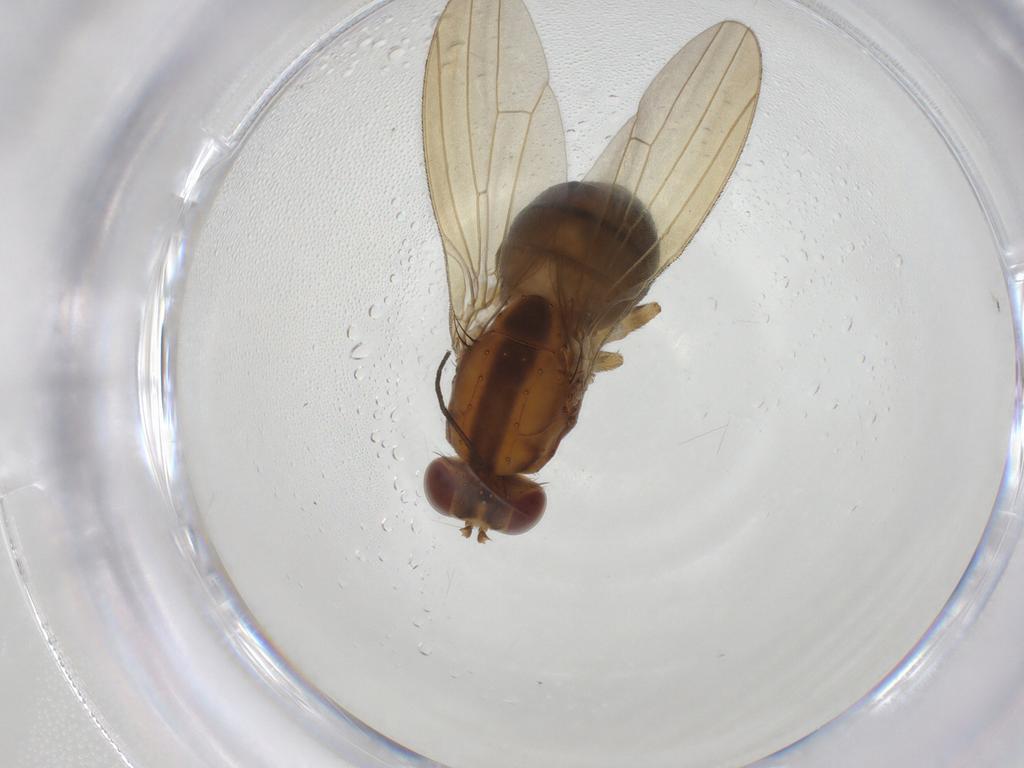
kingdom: Animalia
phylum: Arthropoda
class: Insecta
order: Diptera
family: Lauxaniidae
